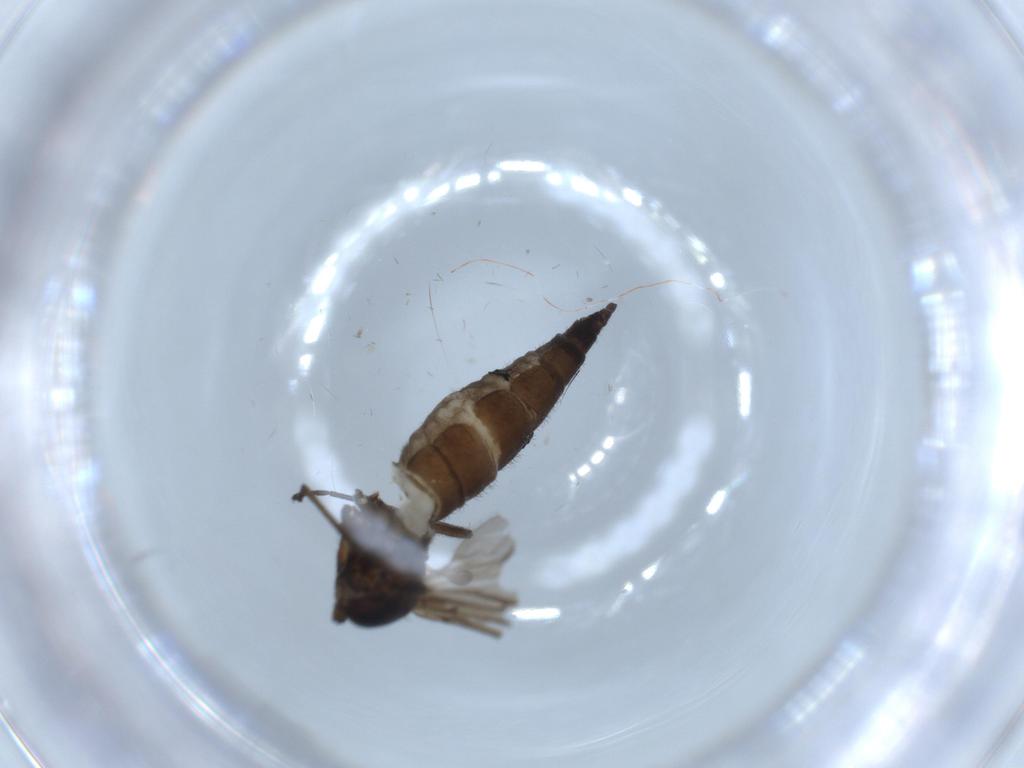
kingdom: Animalia
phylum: Arthropoda
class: Insecta
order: Diptera
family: Sciaridae
